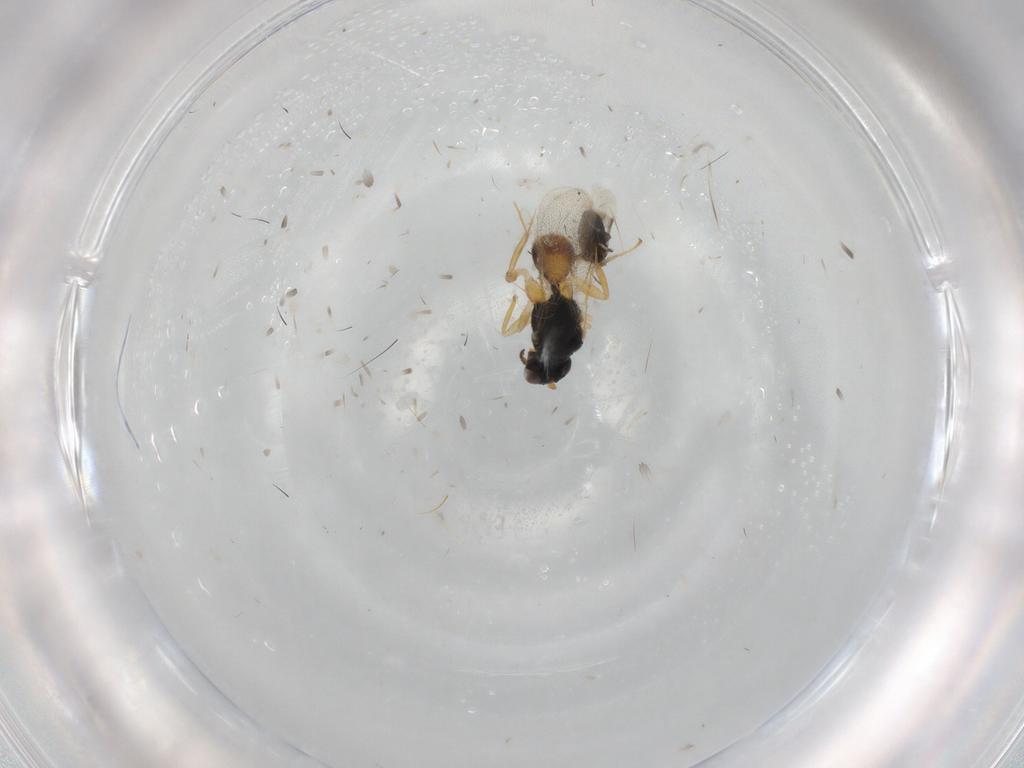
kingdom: Animalia
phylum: Arthropoda
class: Insecta
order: Hymenoptera
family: Eulophidae
